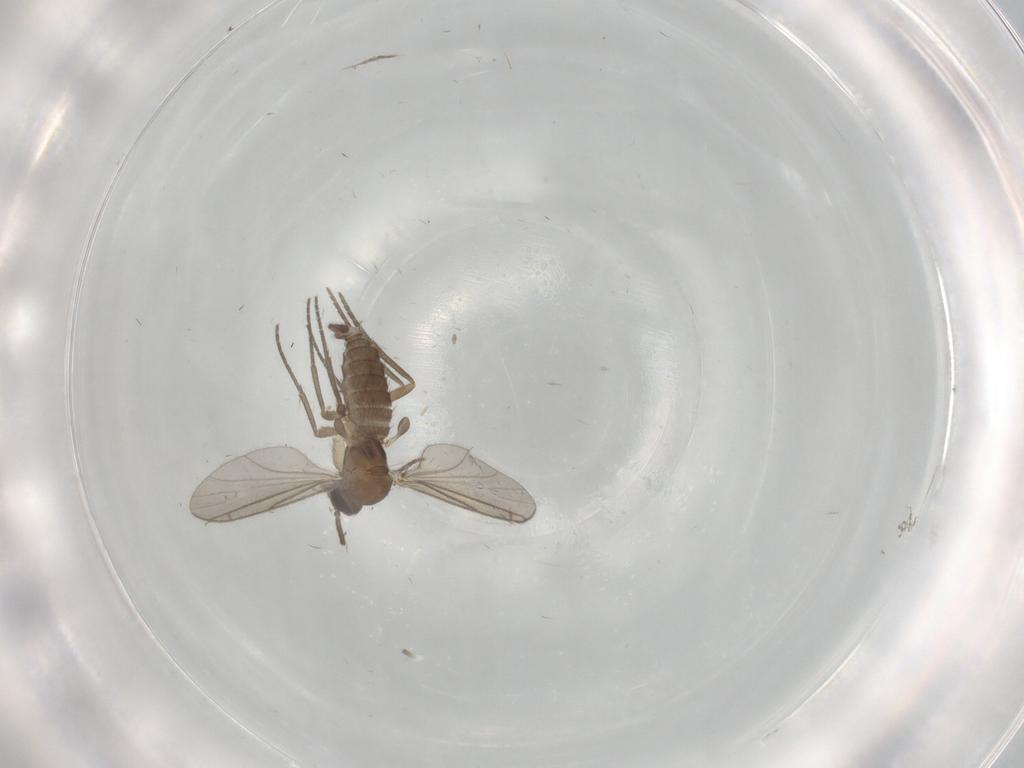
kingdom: Animalia
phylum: Arthropoda
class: Insecta
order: Diptera
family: Sciaridae
